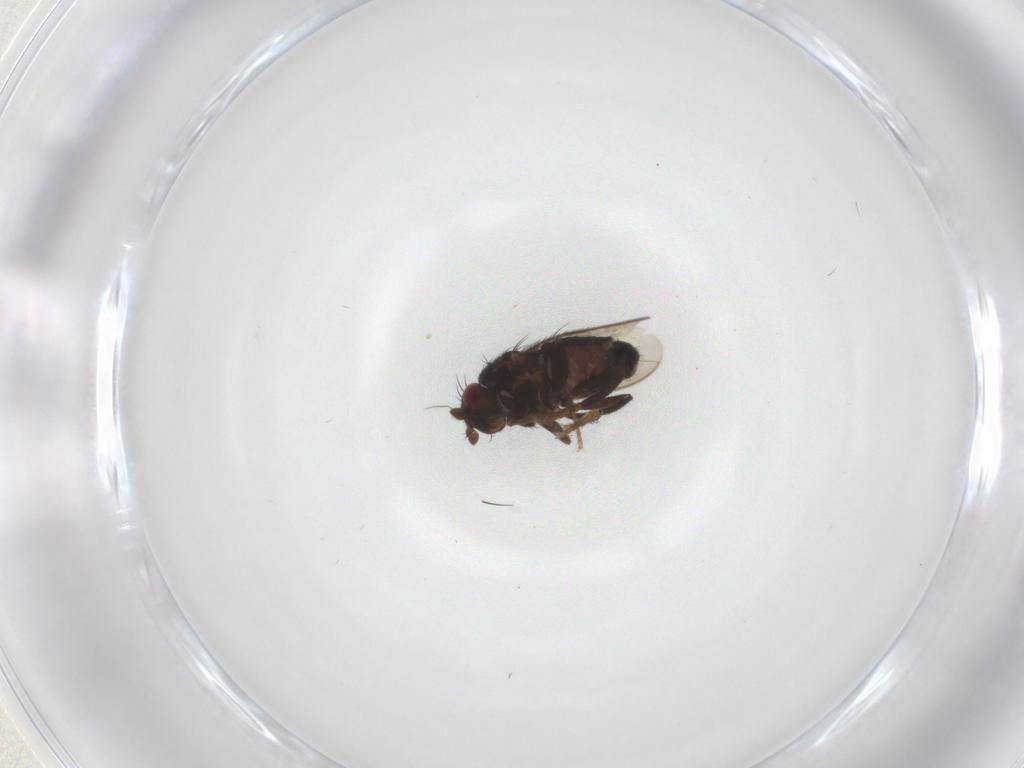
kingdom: Animalia
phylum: Arthropoda
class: Insecta
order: Diptera
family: Sphaeroceridae
